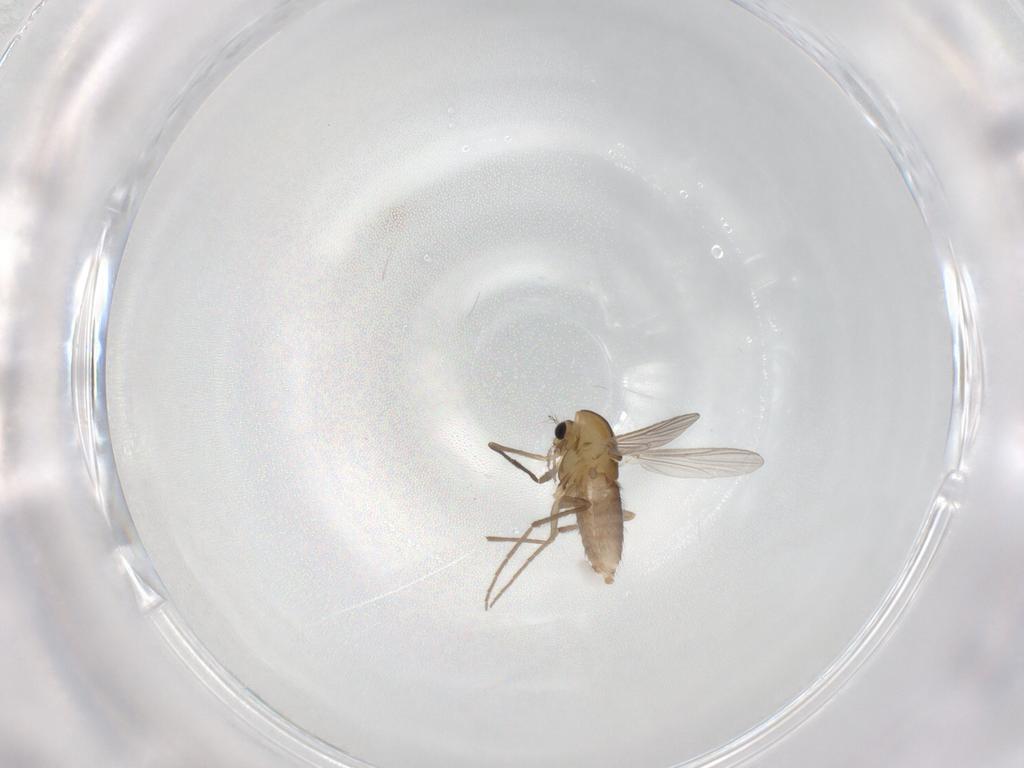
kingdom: Animalia
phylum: Arthropoda
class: Insecta
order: Diptera
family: Chironomidae
